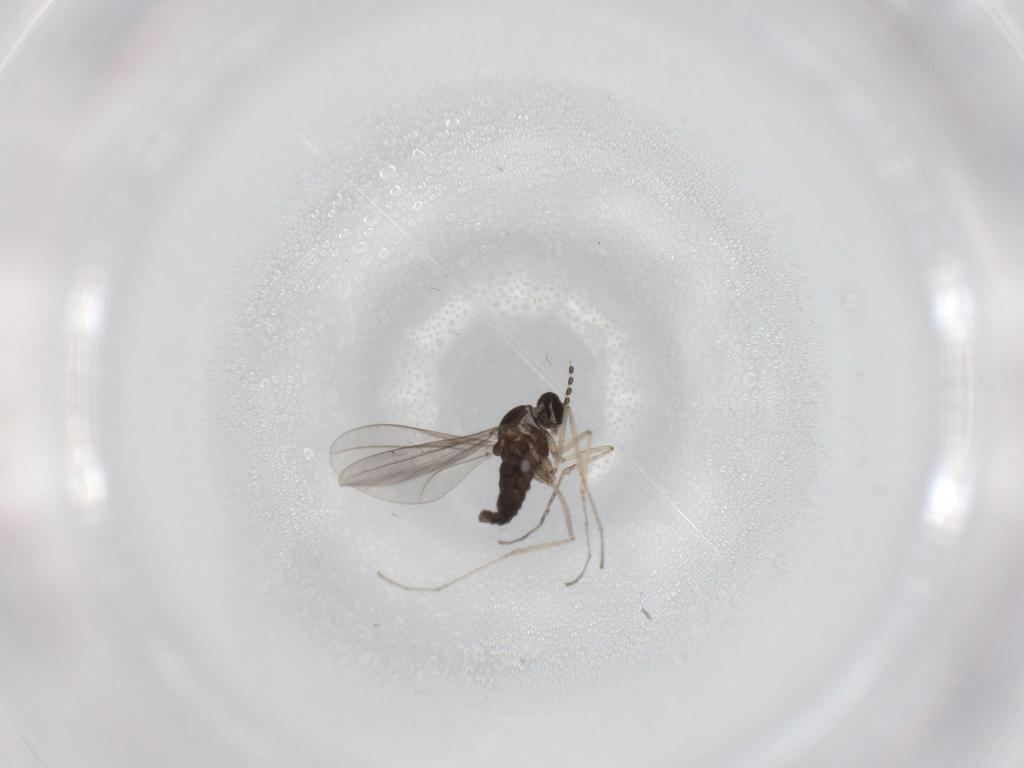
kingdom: Animalia
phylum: Arthropoda
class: Insecta
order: Diptera
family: Cecidomyiidae
